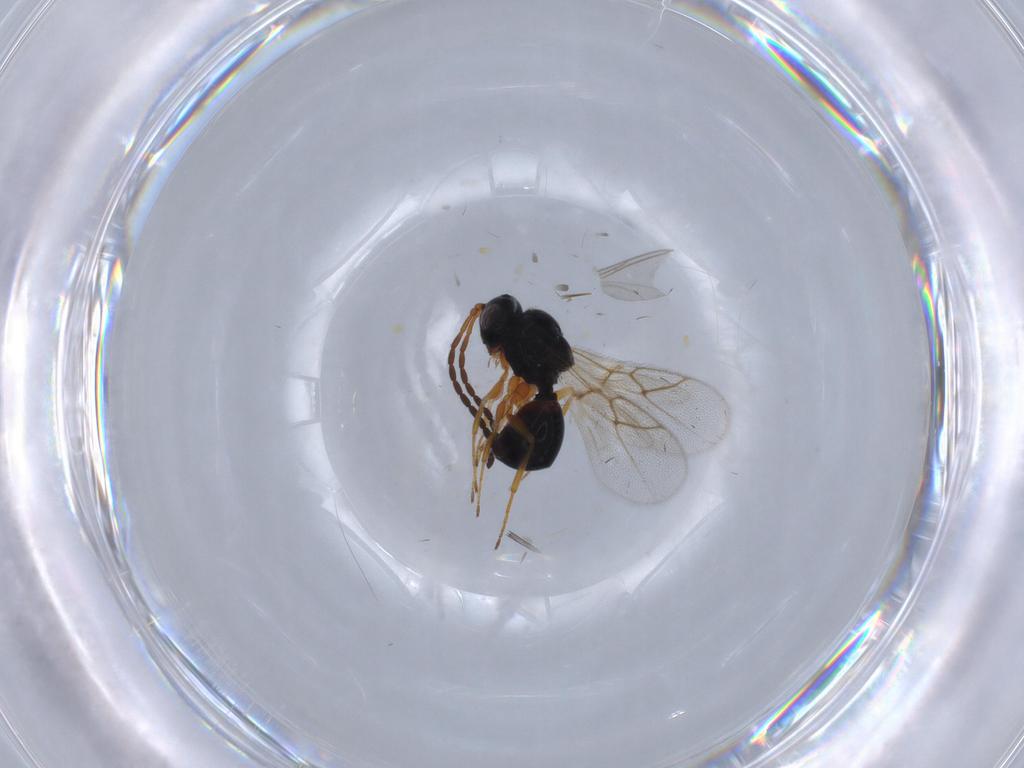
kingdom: Animalia
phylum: Arthropoda
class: Insecta
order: Hymenoptera
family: Figitidae
